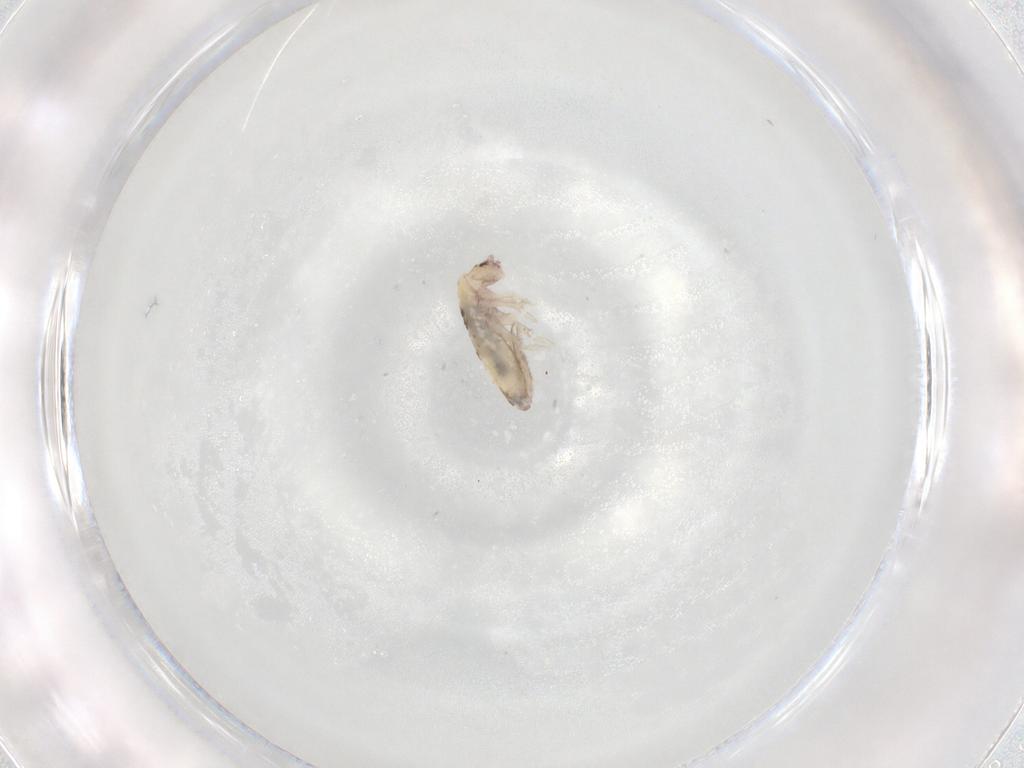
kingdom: Animalia
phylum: Arthropoda
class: Collembola
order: Entomobryomorpha
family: Entomobryidae
